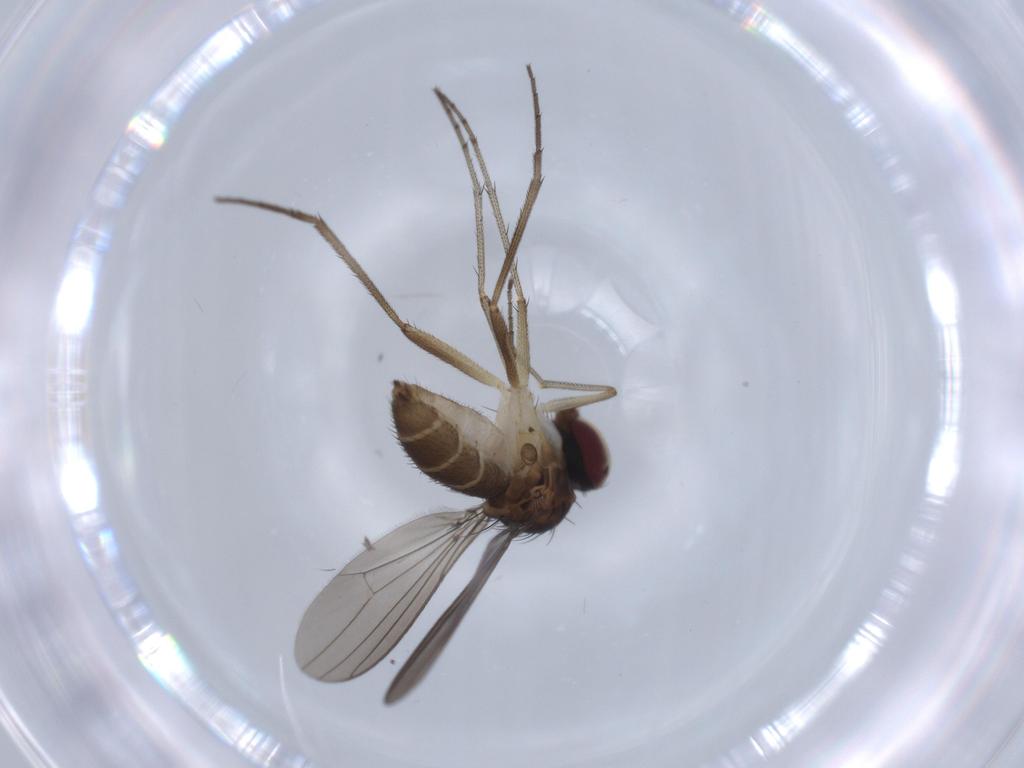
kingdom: Animalia
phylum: Arthropoda
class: Insecta
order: Diptera
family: Dolichopodidae
